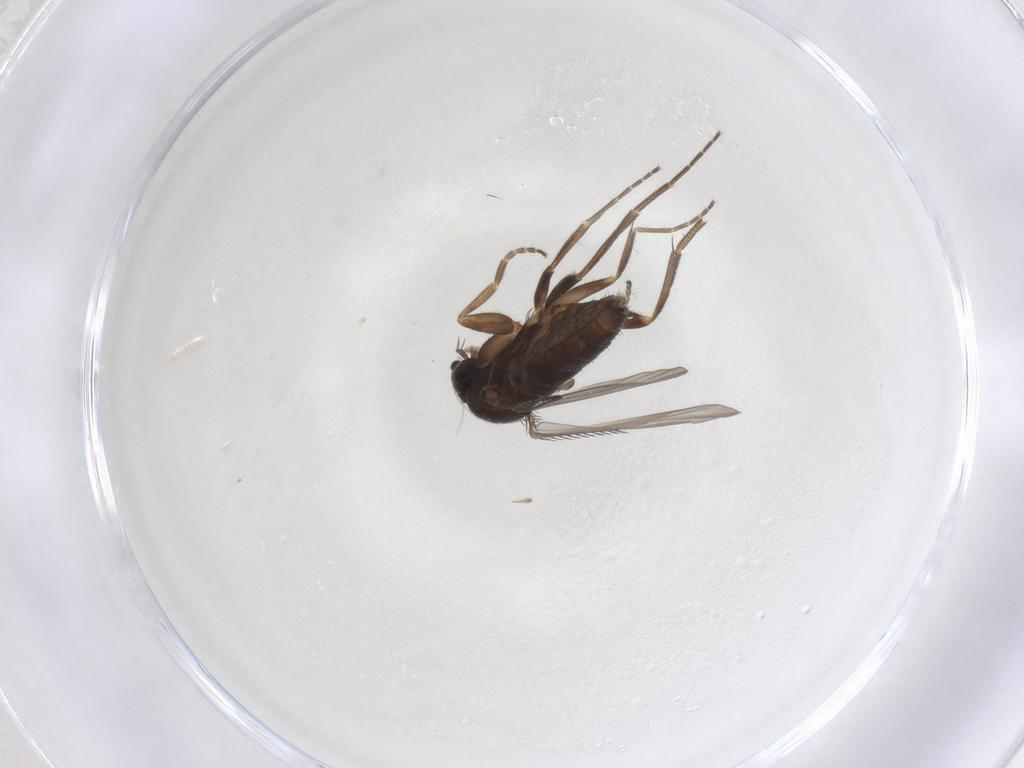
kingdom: Animalia
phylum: Arthropoda
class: Insecta
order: Diptera
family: Phoridae
